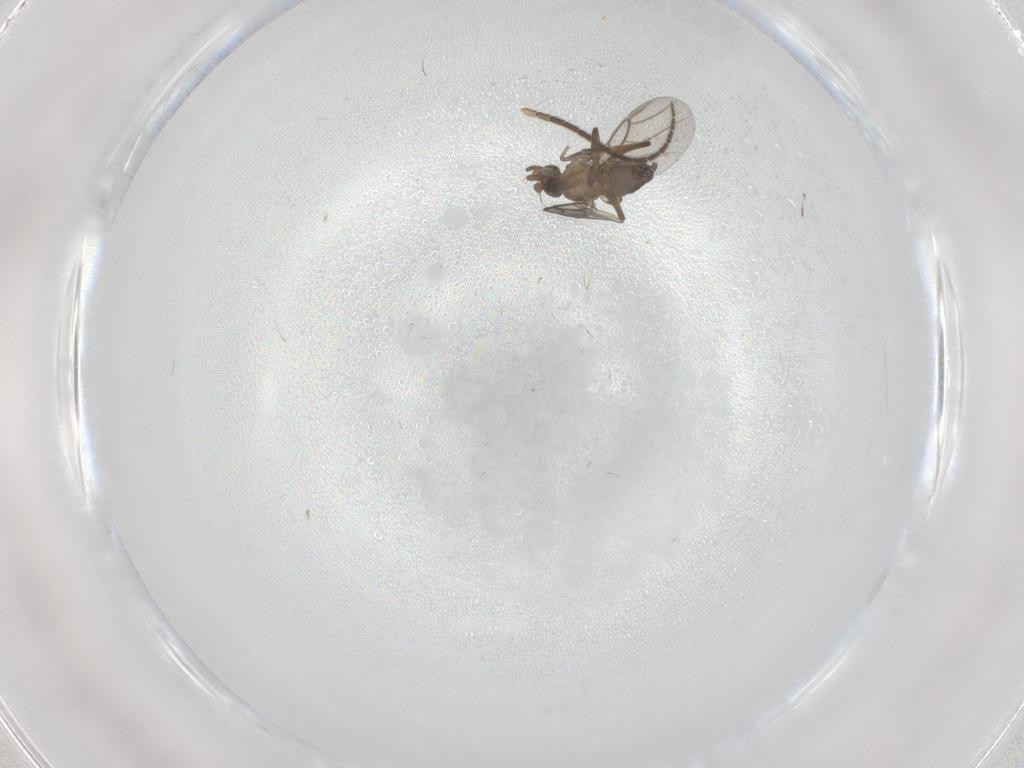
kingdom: Animalia
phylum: Arthropoda
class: Insecta
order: Diptera
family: Phoridae
